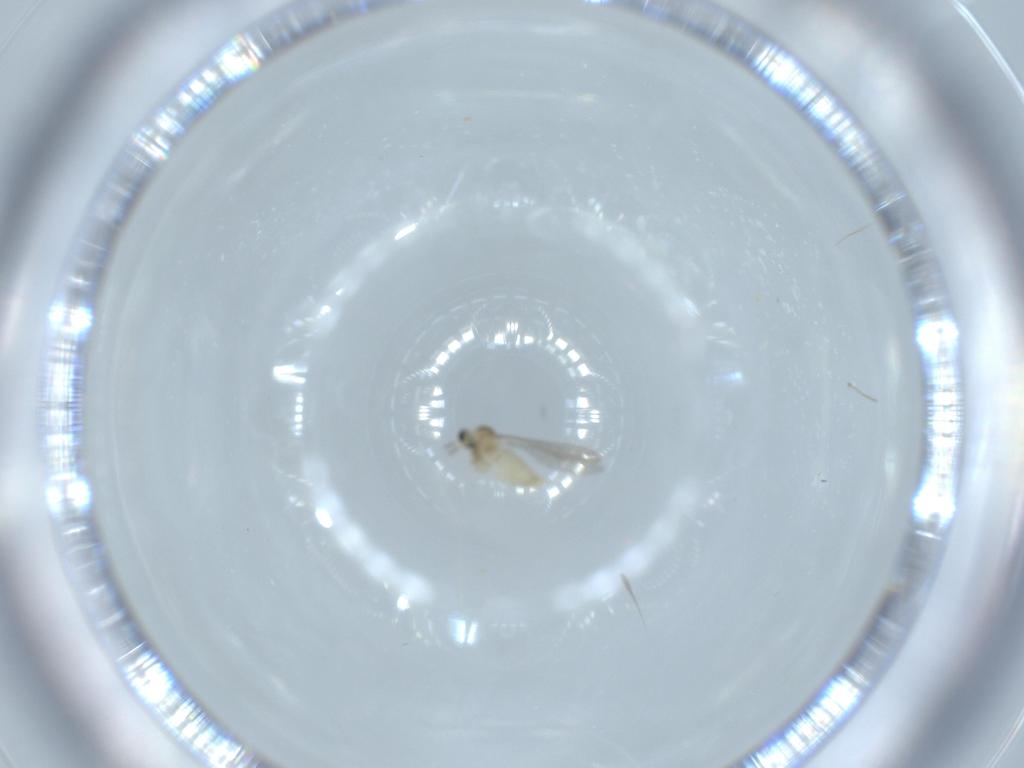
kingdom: Animalia
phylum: Arthropoda
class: Insecta
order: Diptera
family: Cecidomyiidae
